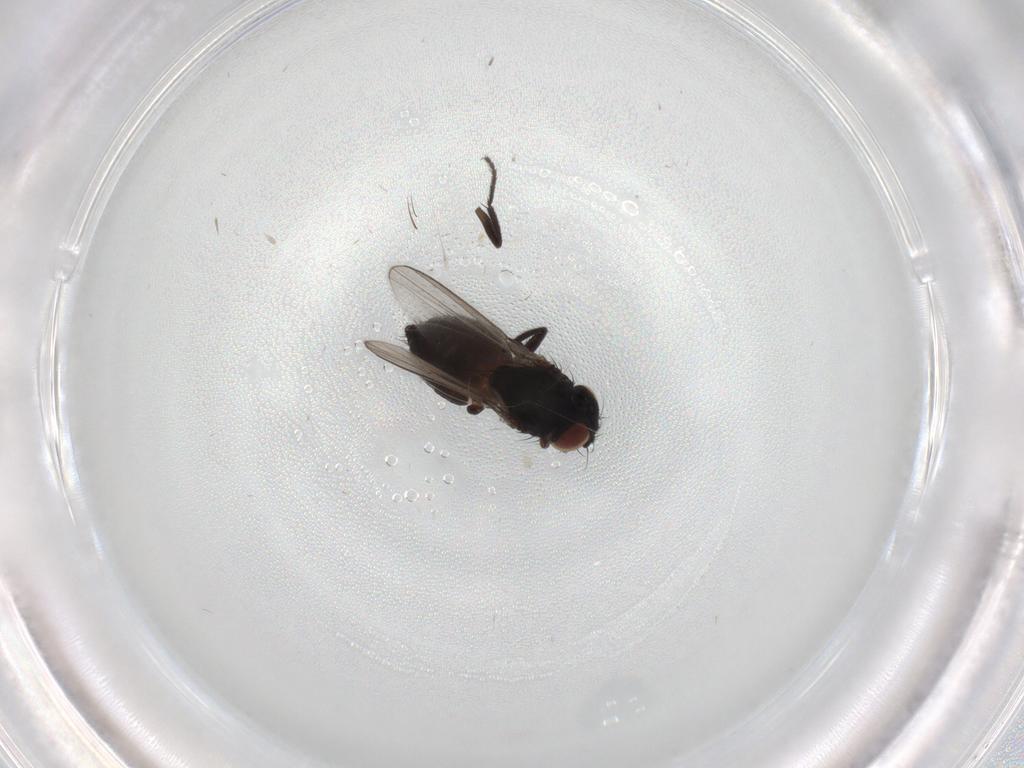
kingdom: Animalia
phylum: Arthropoda
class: Insecta
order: Diptera
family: Milichiidae
